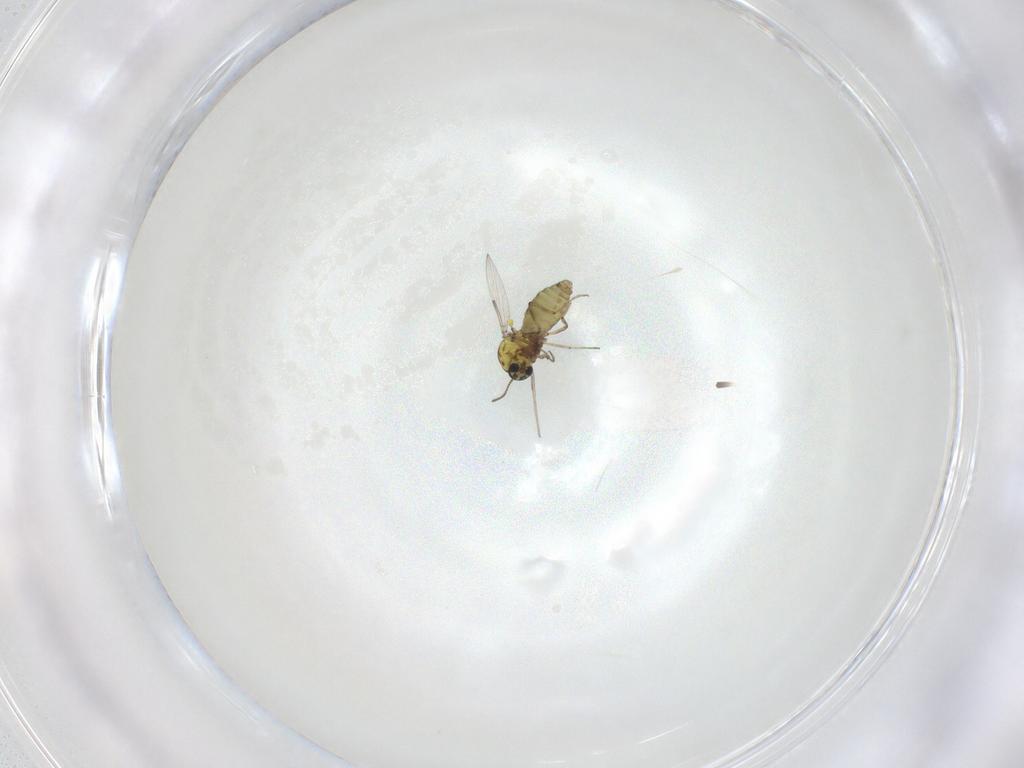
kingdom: Animalia
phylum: Arthropoda
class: Insecta
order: Diptera
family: Ceratopogonidae
